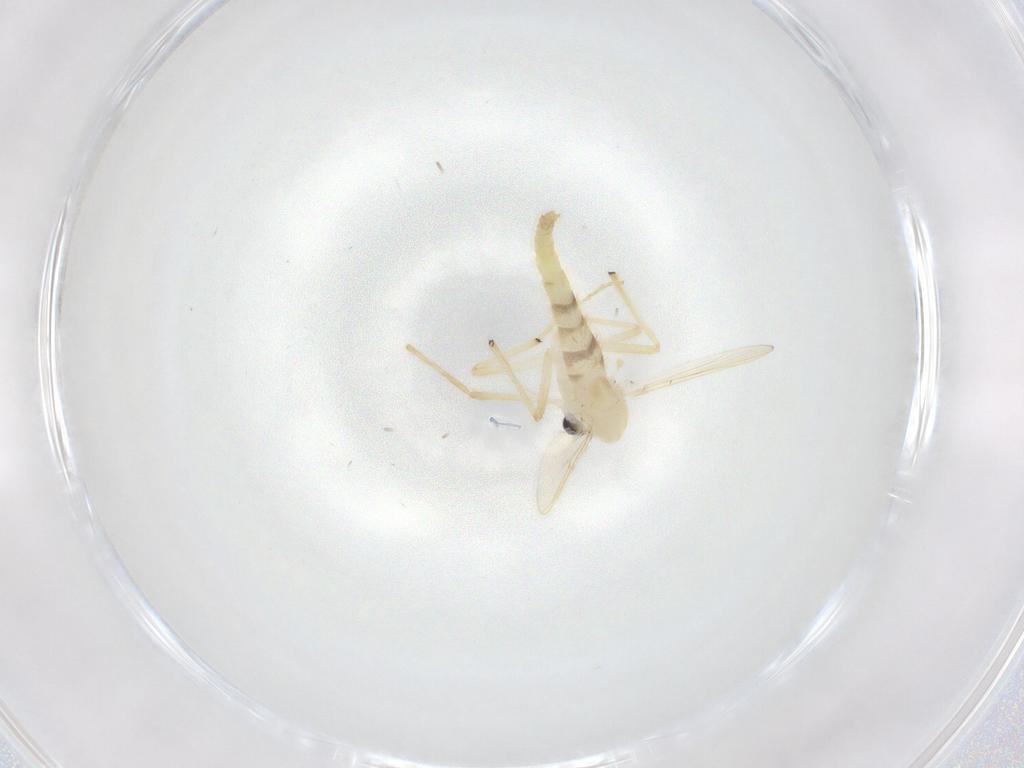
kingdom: Animalia
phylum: Arthropoda
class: Insecta
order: Diptera
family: Chironomidae
